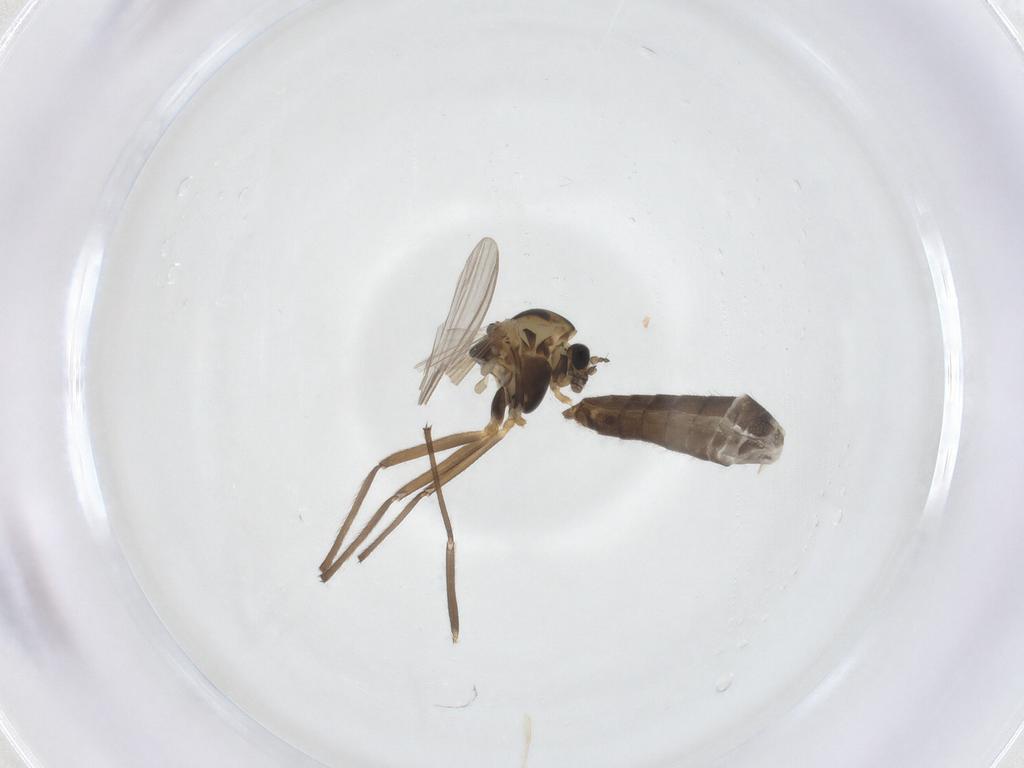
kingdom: Animalia
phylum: Arthropoda
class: Insecta
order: Diptera
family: Chironomidae
